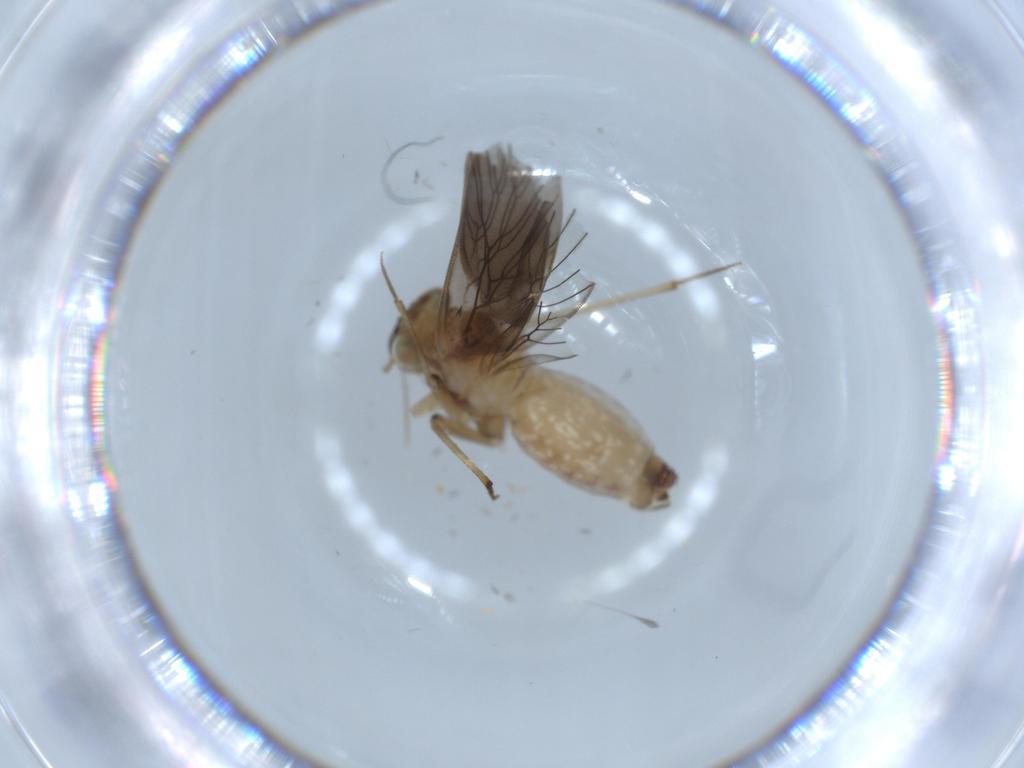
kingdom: Animalia
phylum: Arthropoda
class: Insecta
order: Psocodea
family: Lepidopsocidae
